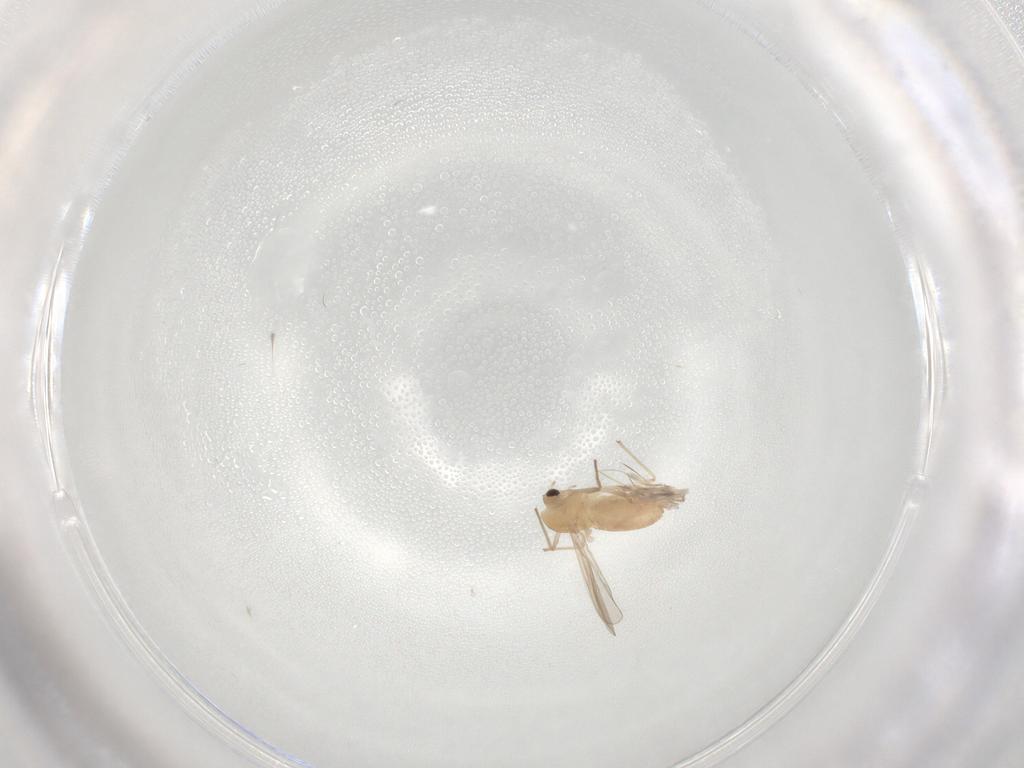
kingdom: Animalia
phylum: Arthropoda
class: Insecta
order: Diptera
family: Chironomidae
